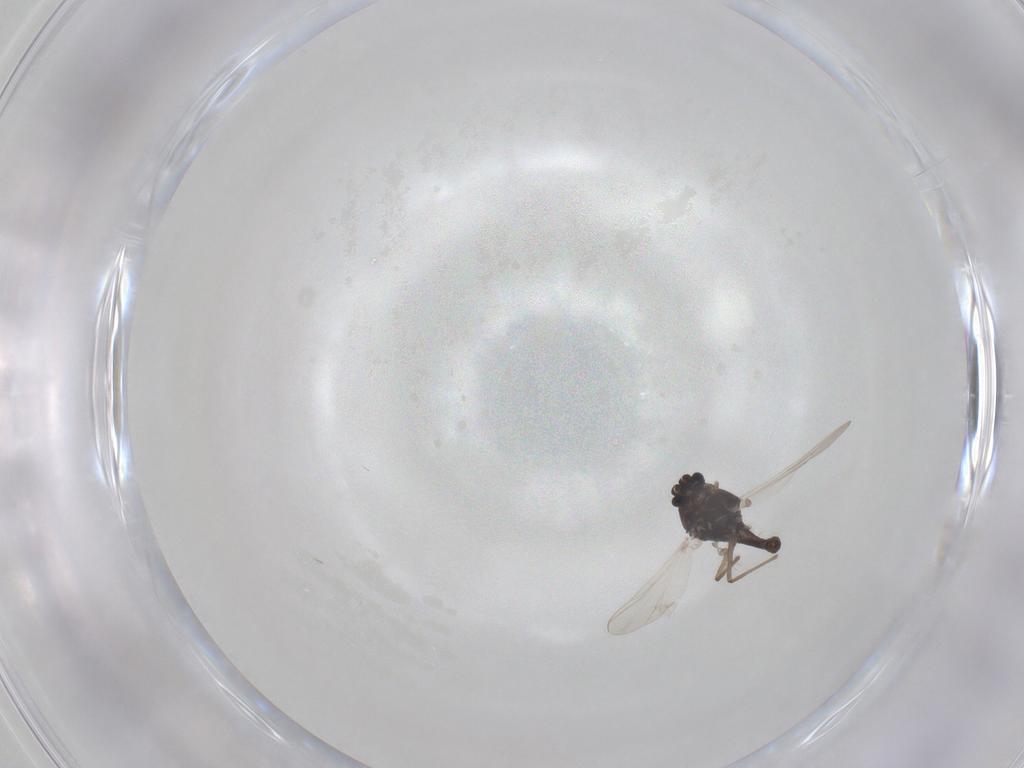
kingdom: Animalia
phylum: Arthropoda
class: Insecta
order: Diptera
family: Chironomidae
